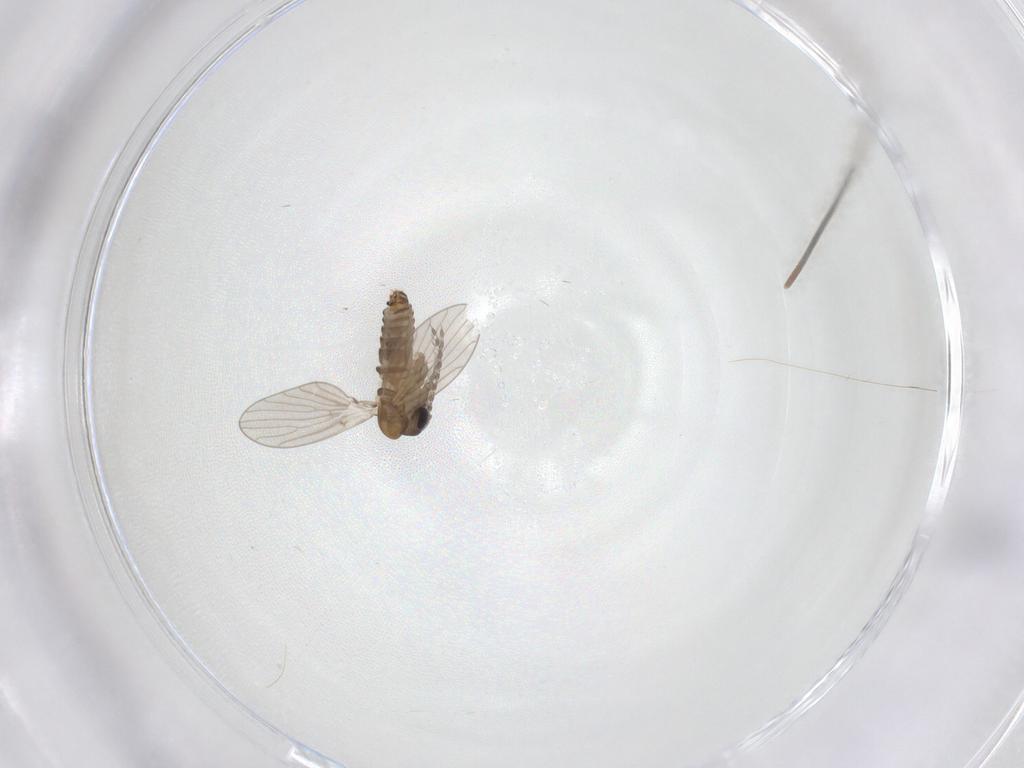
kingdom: Animalia
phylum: Arthropoda
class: Insecta
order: Diptera
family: Psychodidae
